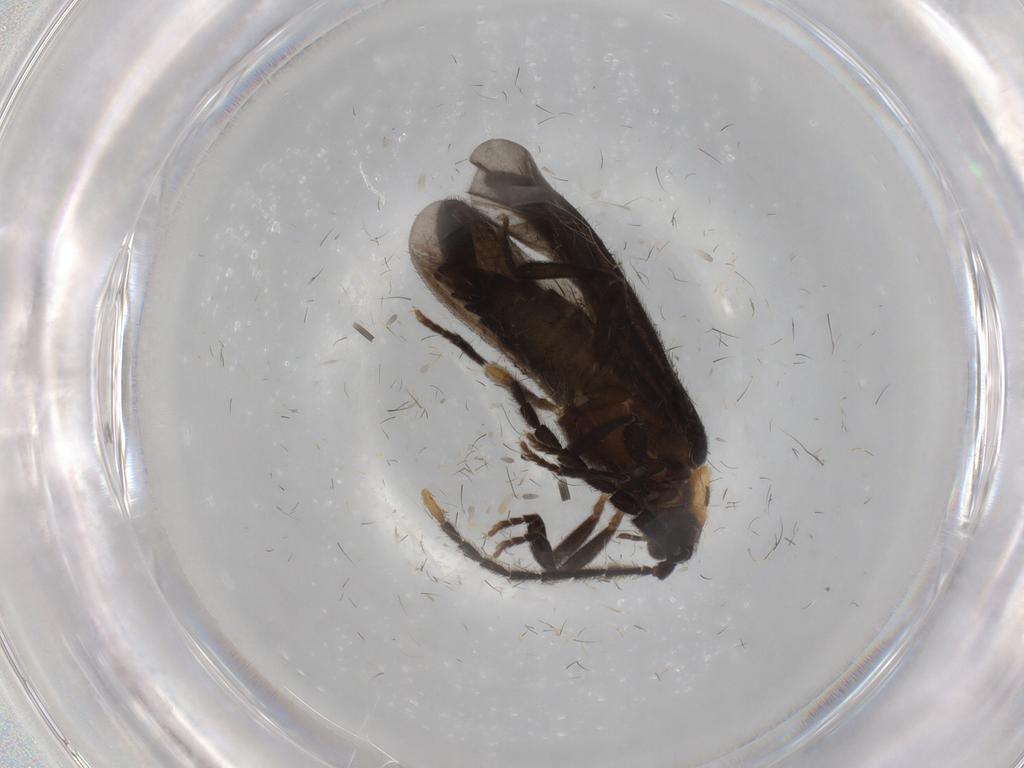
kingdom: Animalia
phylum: Arthropoda
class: Insecta
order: Coleoptera
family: Lycidae
